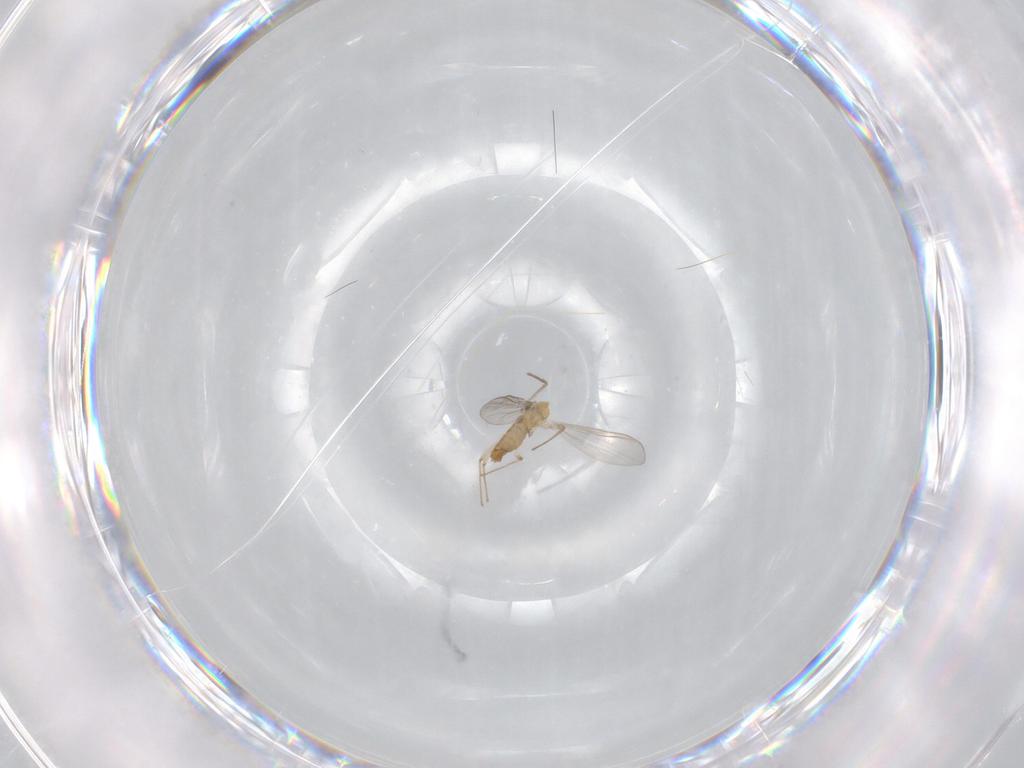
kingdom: Animalia
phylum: Arthropoda
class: Insecta
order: Diptera
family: Chironomidae
